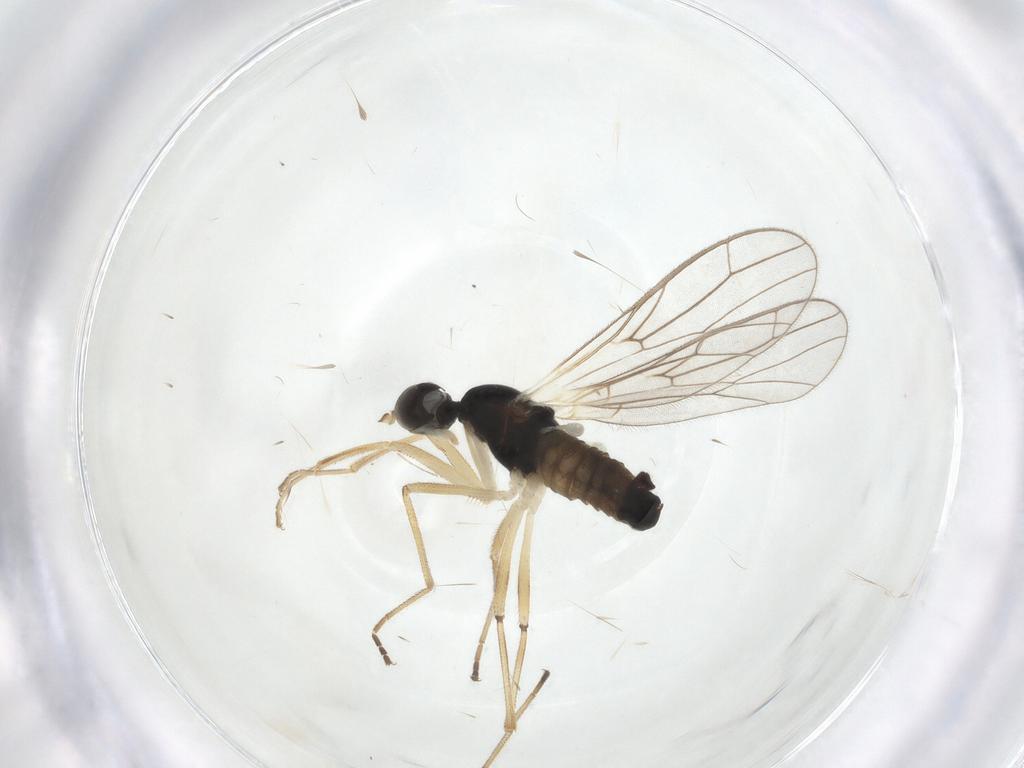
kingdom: Animalia
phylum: Arthropoda
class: Insecta
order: Diptera
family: Empididae
